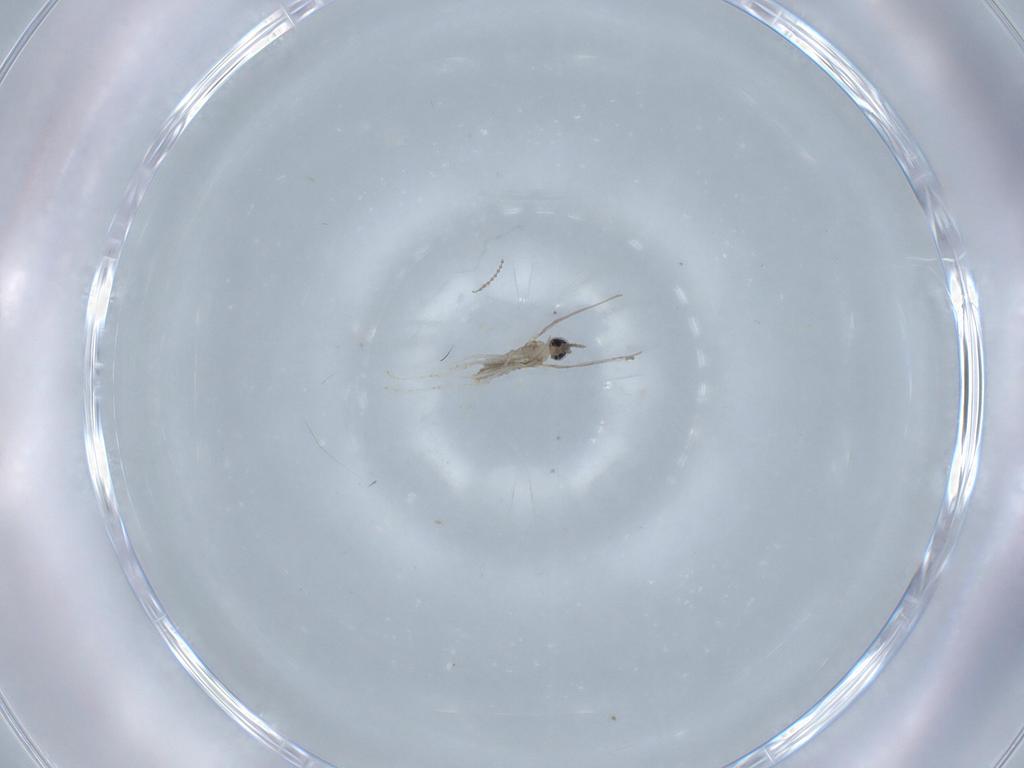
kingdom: Animalia
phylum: Arthropoda
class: Insecta
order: Diptera
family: Cecidomyiidae
